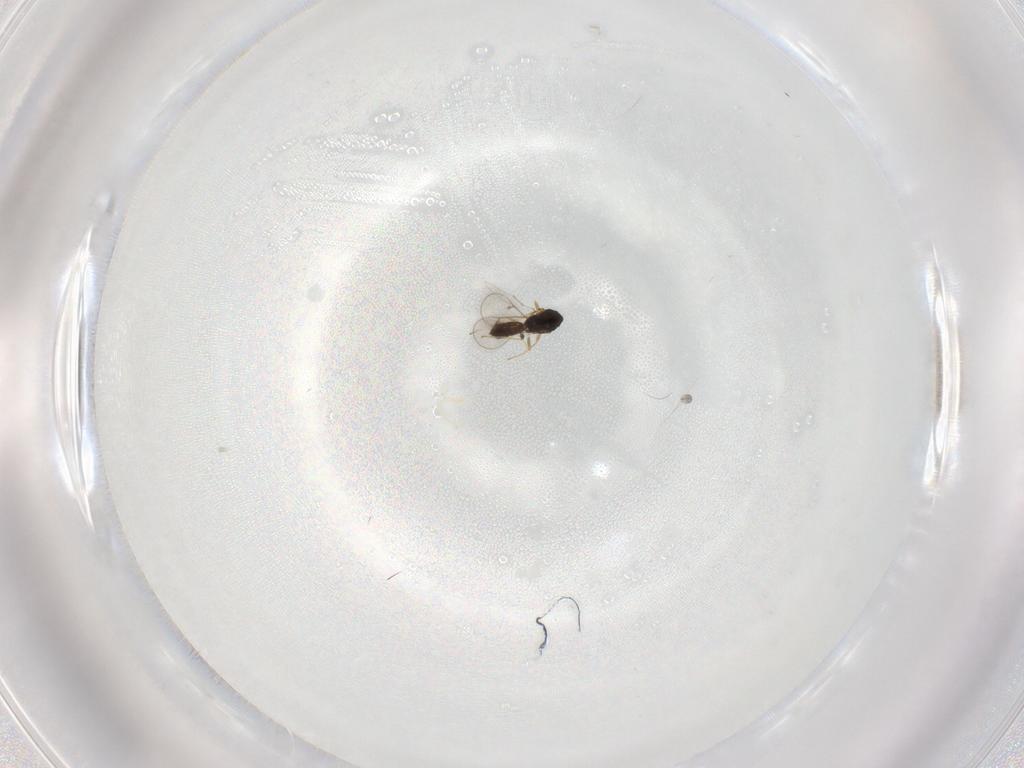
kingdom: Animalia
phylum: Arthropoda
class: Insecta
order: Hymenoptera
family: Eulophidae
